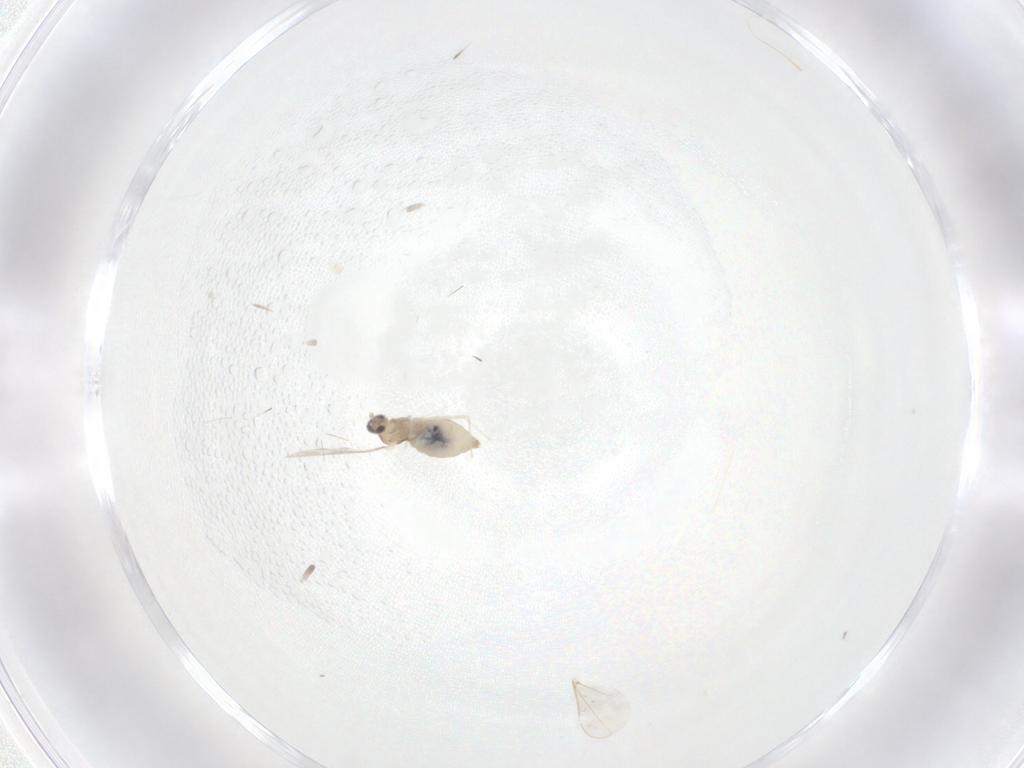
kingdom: Animalia
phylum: Arthropoda
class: Insecta
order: Diptera
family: Cecidomyiidae
